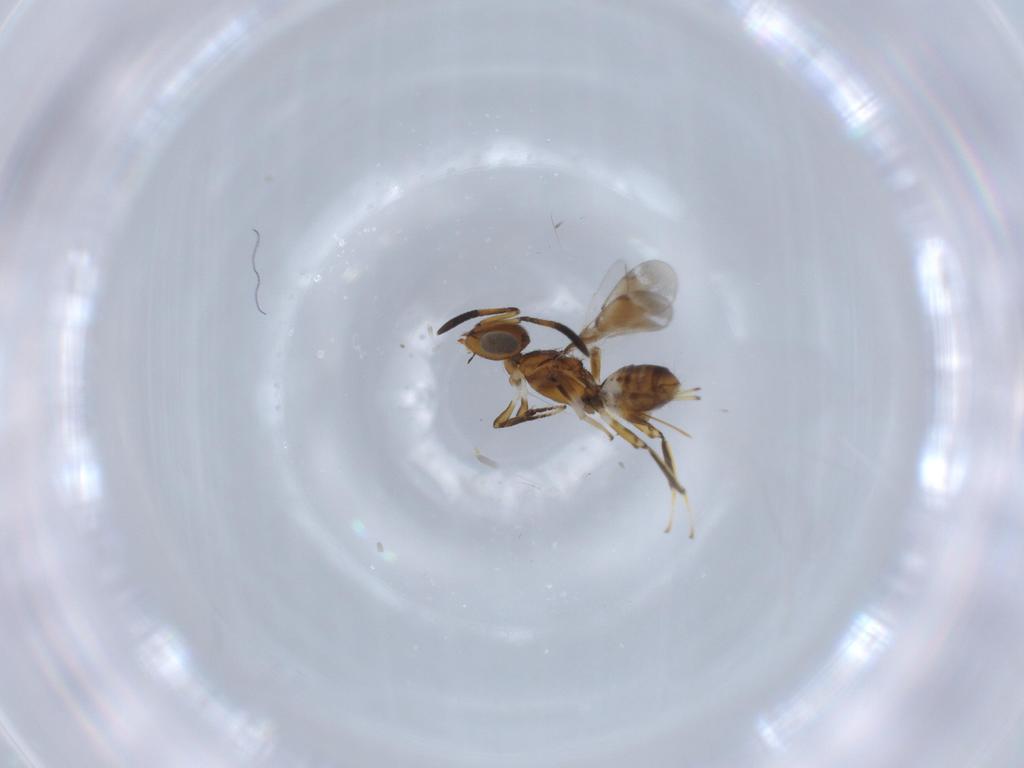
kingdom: Animalia
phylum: Arthropoda
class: Insecta
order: Hymenoptera
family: Eupelmidae
